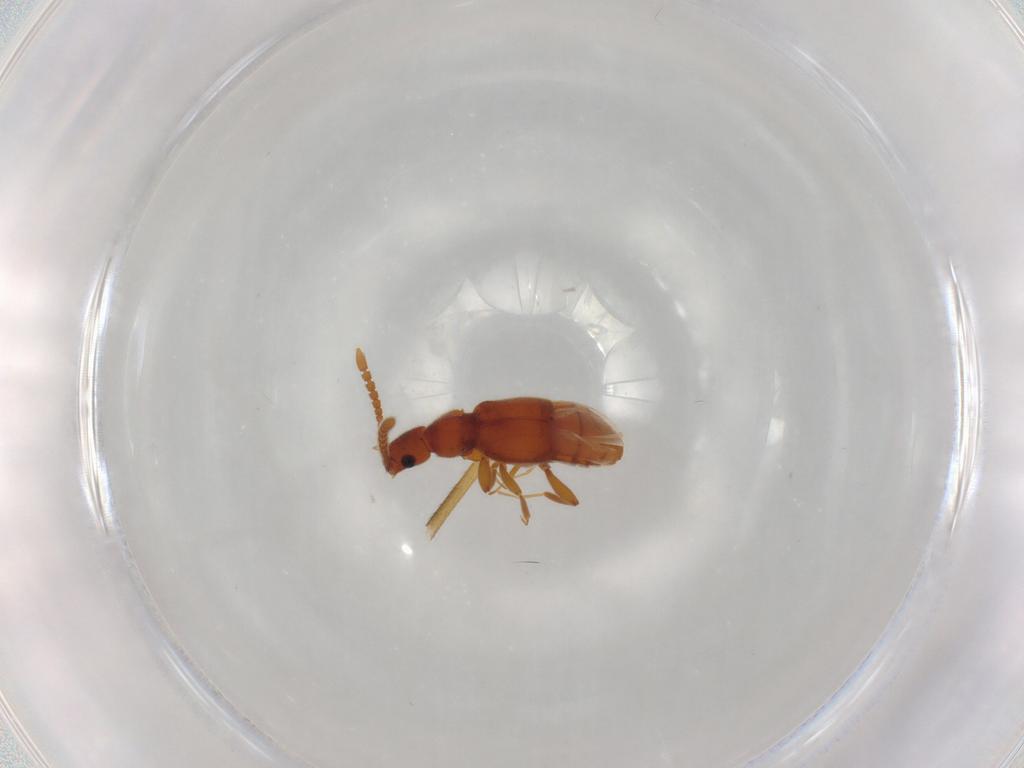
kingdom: Animalia
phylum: Arthropoda
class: Insecta
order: Coleoptera
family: Staphylinidae
